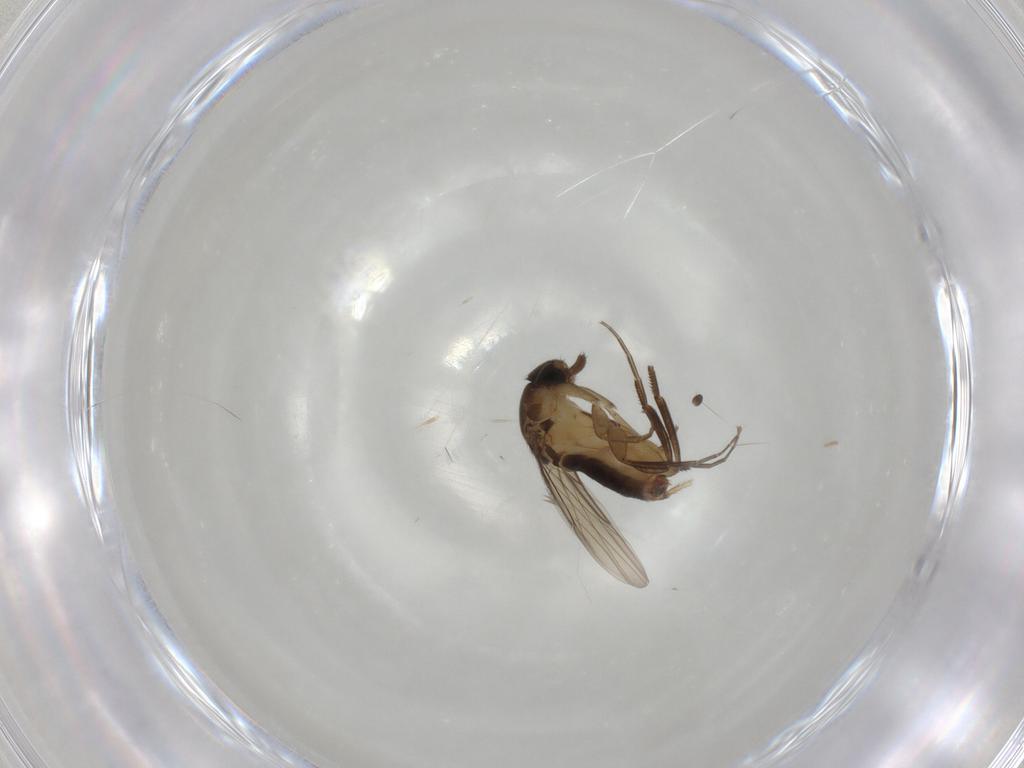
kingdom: Animalia
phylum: Arthropoda
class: Insecta
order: Diptera
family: Phoridae
